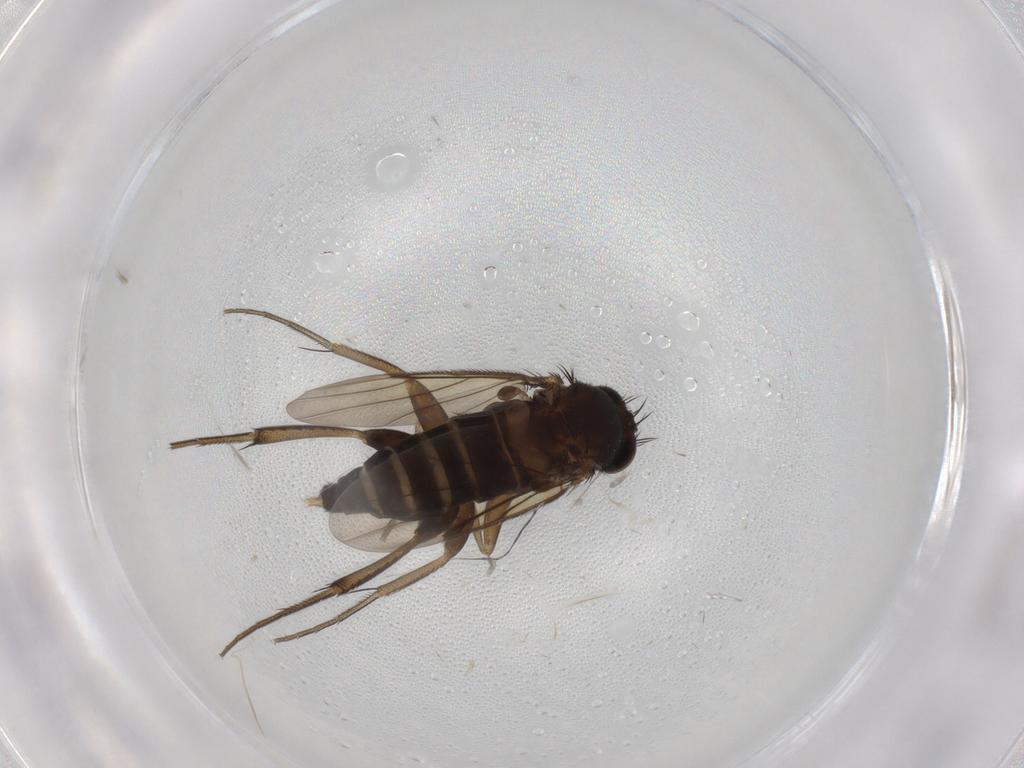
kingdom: Animalia
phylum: Arthropoda
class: Insecta
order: Diptera
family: Phoridae
